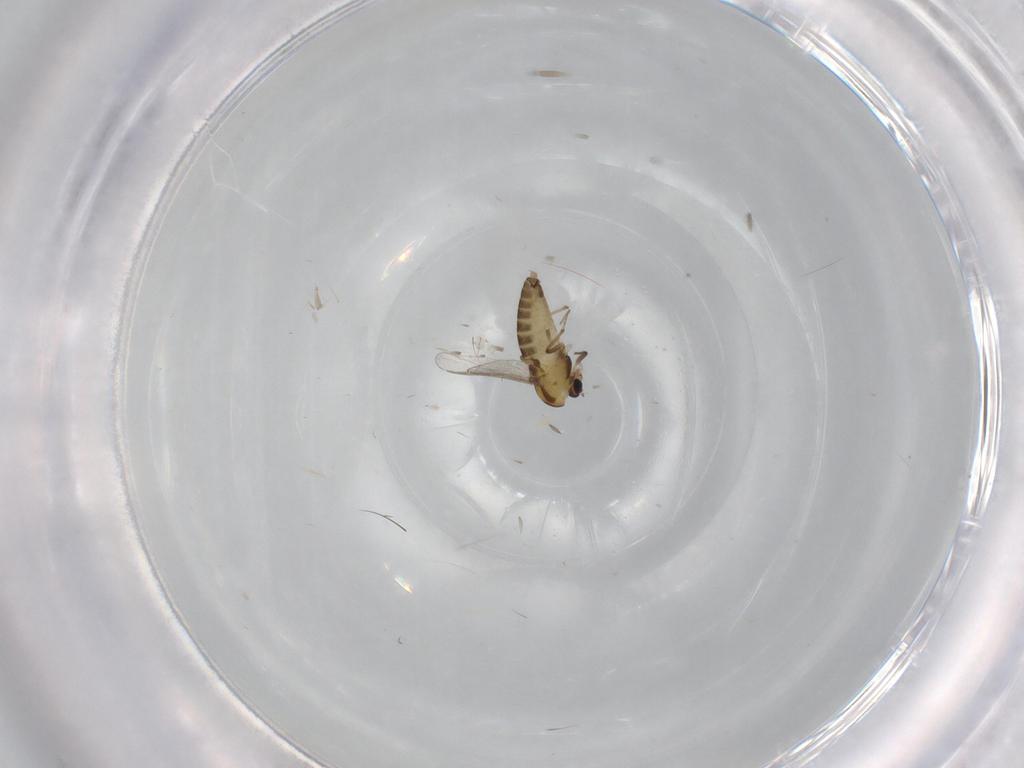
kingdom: Animalia
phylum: Arthropoda
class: Insecta
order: Diptera
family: Chironomidae
